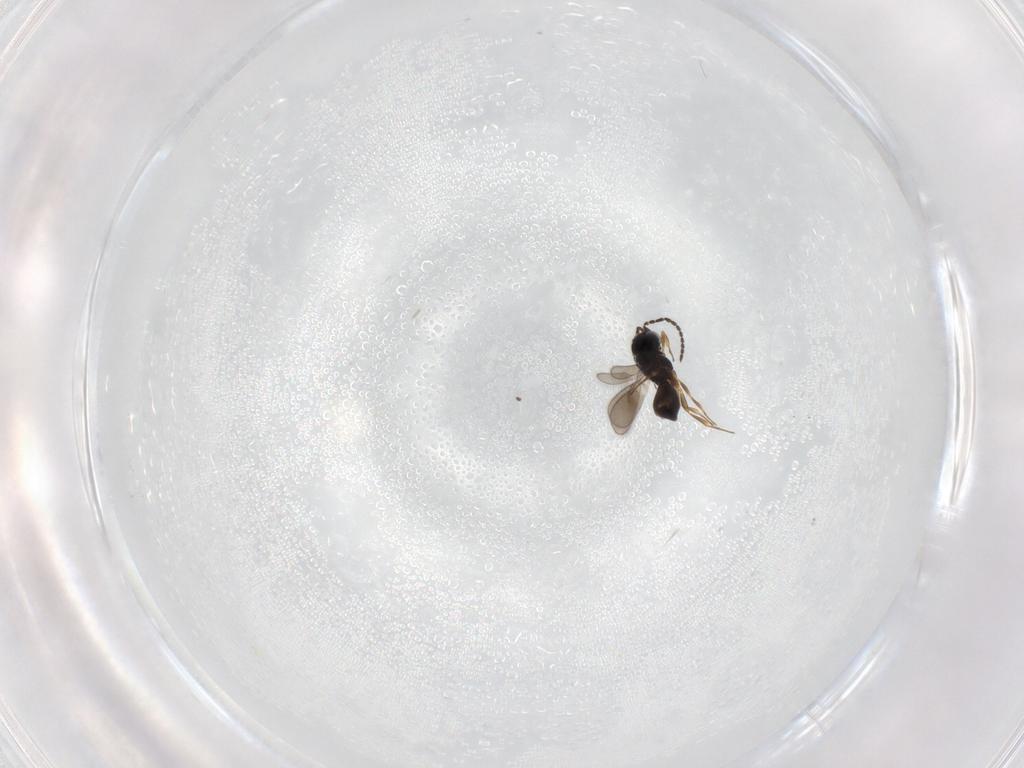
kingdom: Animalia
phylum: Arthropoda
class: Insecta
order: Hymenoptera
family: Scelionidae
